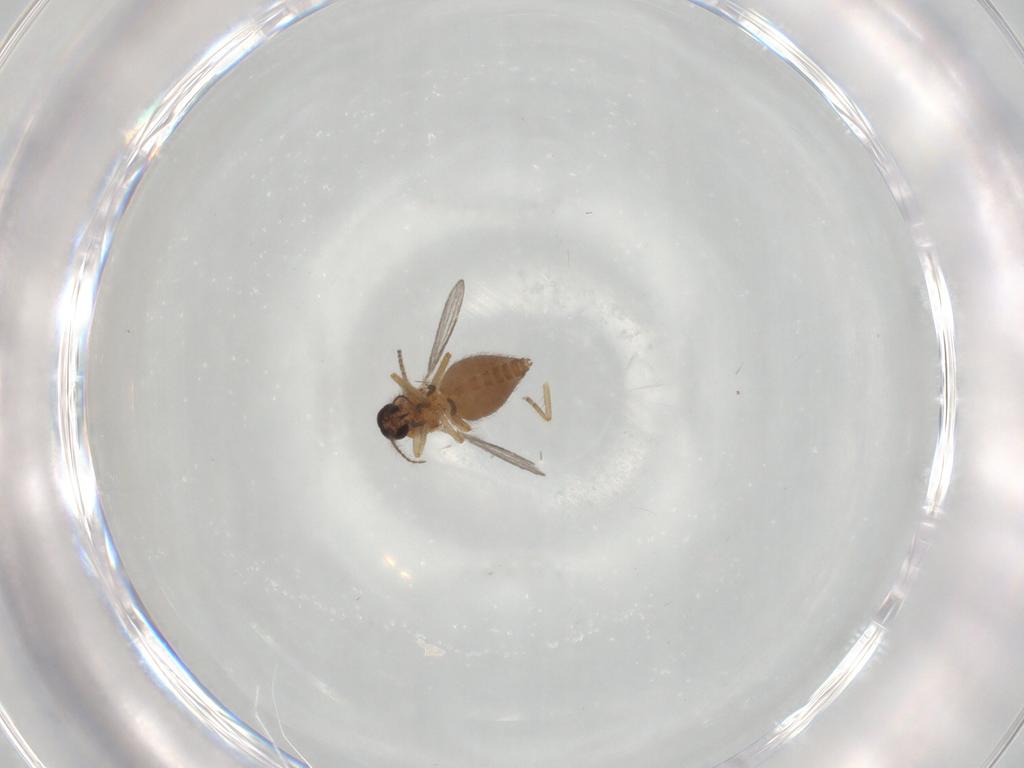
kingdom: Animalia
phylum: Arthropoda
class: Insecta
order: Diptera
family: Ceratopogonidae
